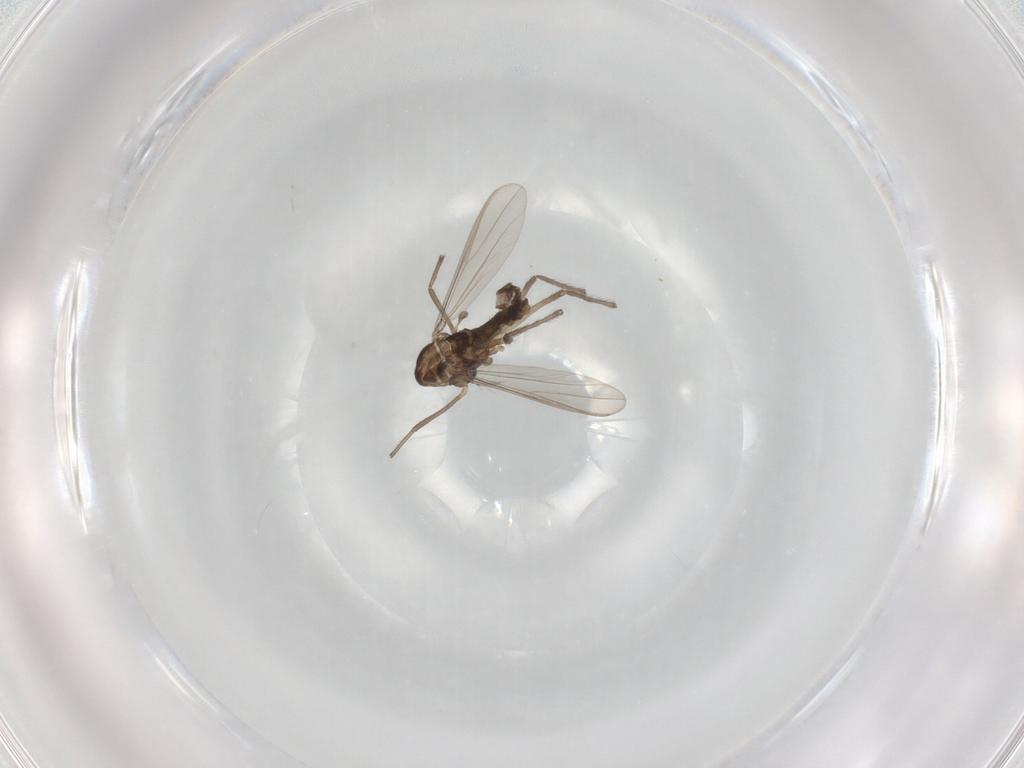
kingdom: Animalia
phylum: Arthropoda
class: Insecta
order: Diptera
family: Chironomidae
